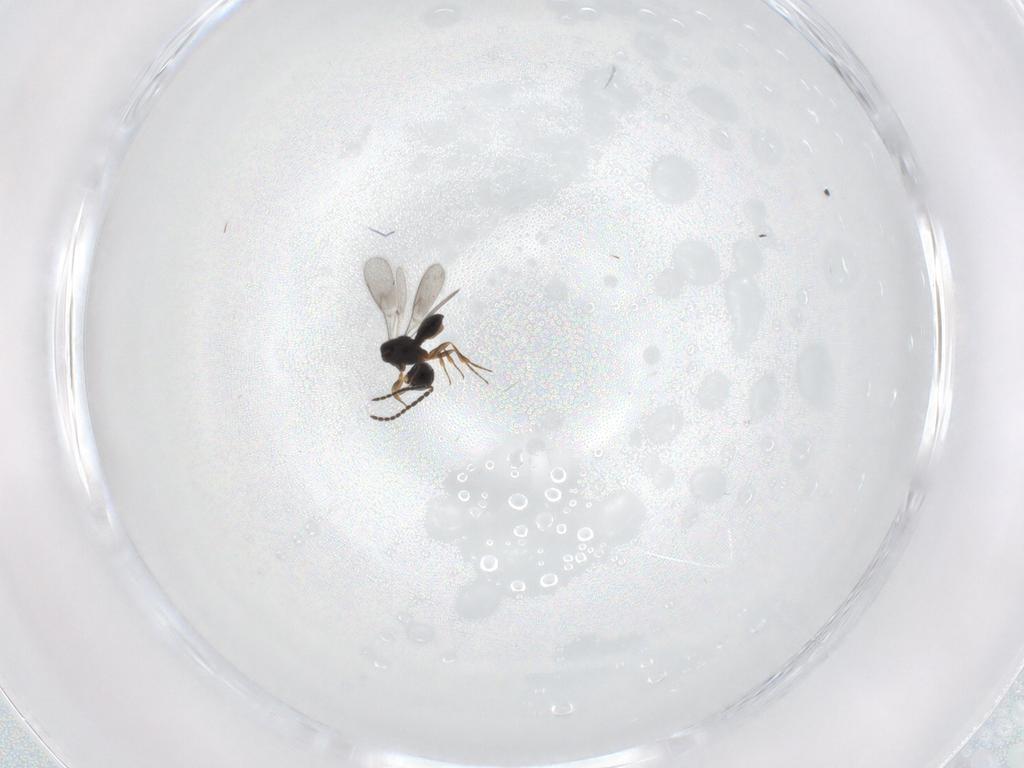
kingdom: Animalia
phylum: Arthropoda
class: Insecta
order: Hymenoptera
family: Scelionidae
